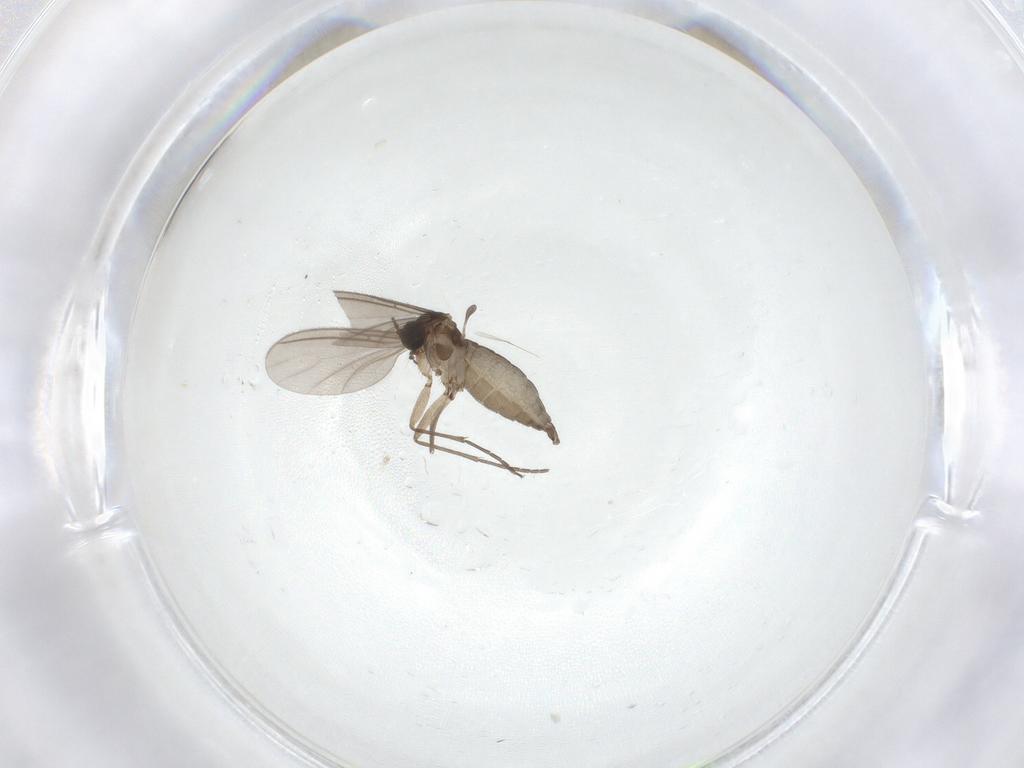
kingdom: Animalia
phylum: Arthropoda
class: Insecta
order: Diptera
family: Sciaridae
